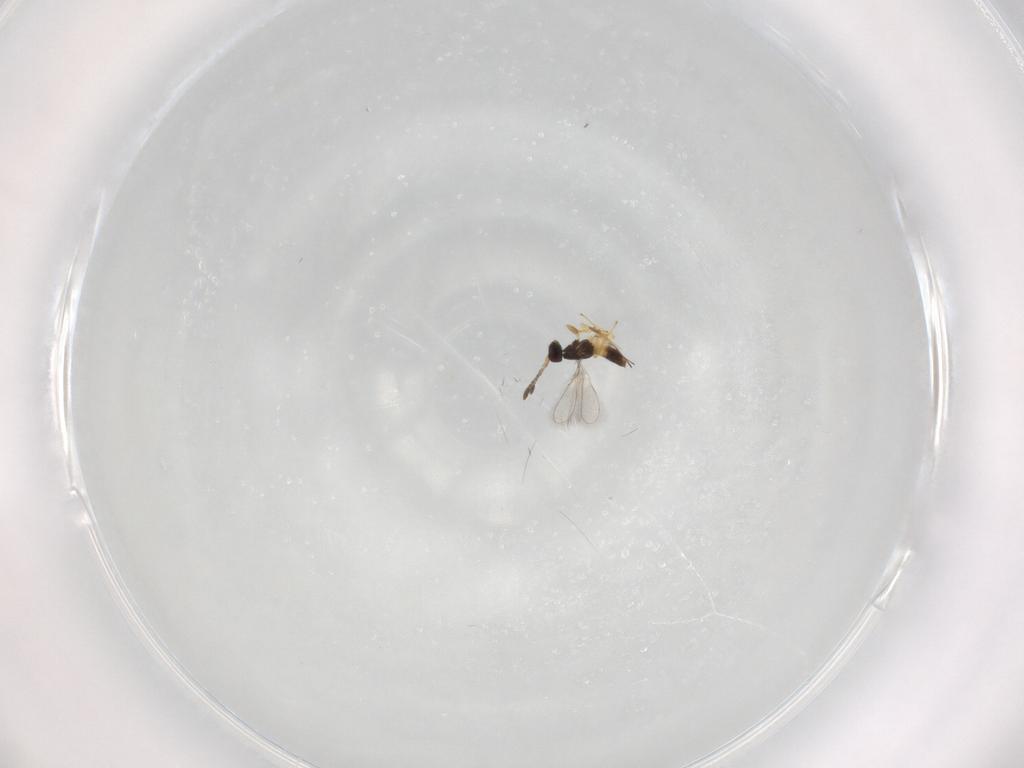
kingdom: Animalia
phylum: Arthropoda
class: Insecta
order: Hymenoptera
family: Mymaridae
